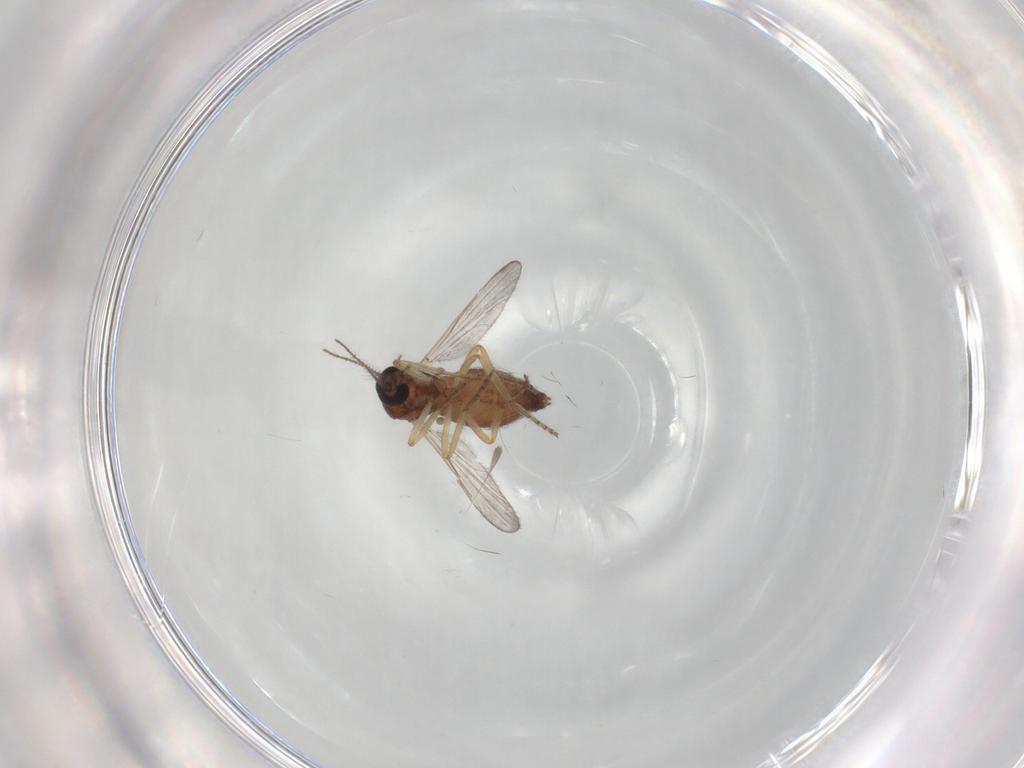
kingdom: Animalia
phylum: Arthropoda
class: Insecta
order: Diptera
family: Ceratopogonidae
